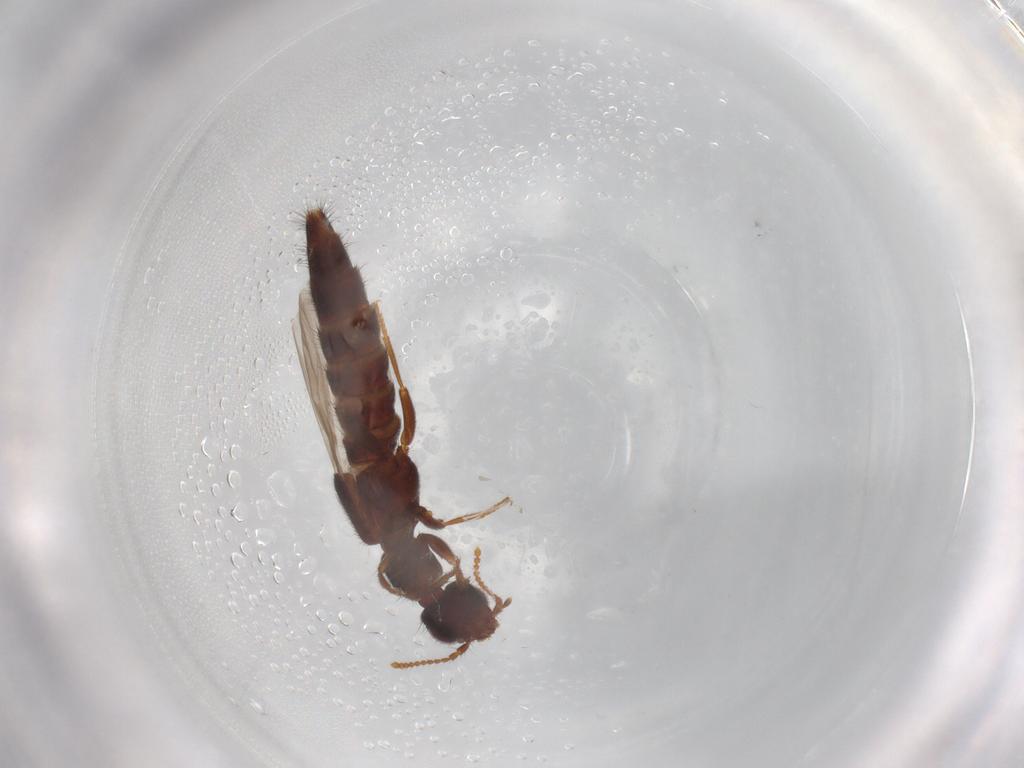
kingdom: Animalia
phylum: Arthropoda
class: Insecta
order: Coleoptera
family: Staphylinidae
